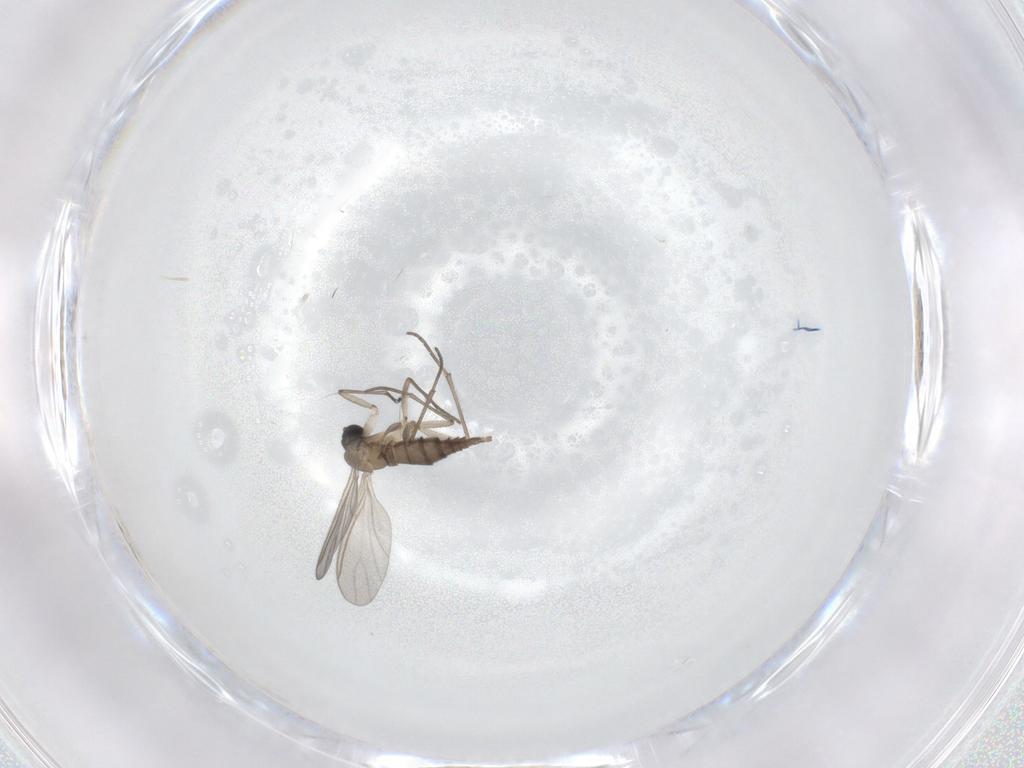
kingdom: Animalia
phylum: Arthropoda
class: Insecta
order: Diptera
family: Sciaridae
